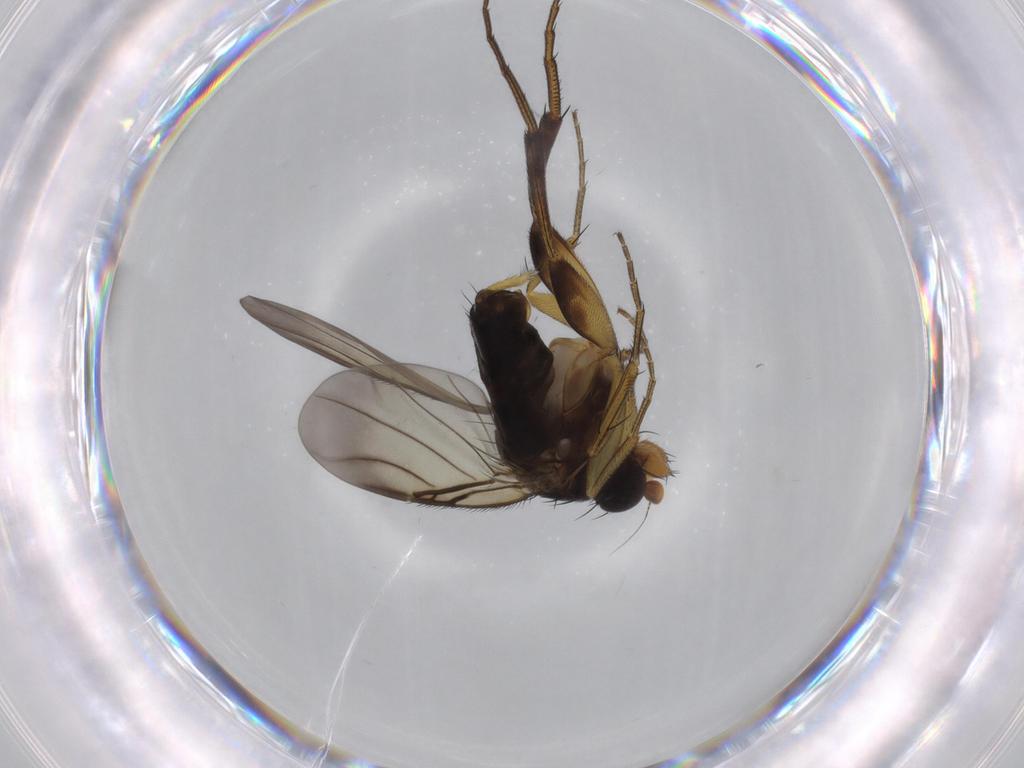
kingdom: Animalia
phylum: Arthropoda
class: Insecta
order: Diptera
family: Phoridae
